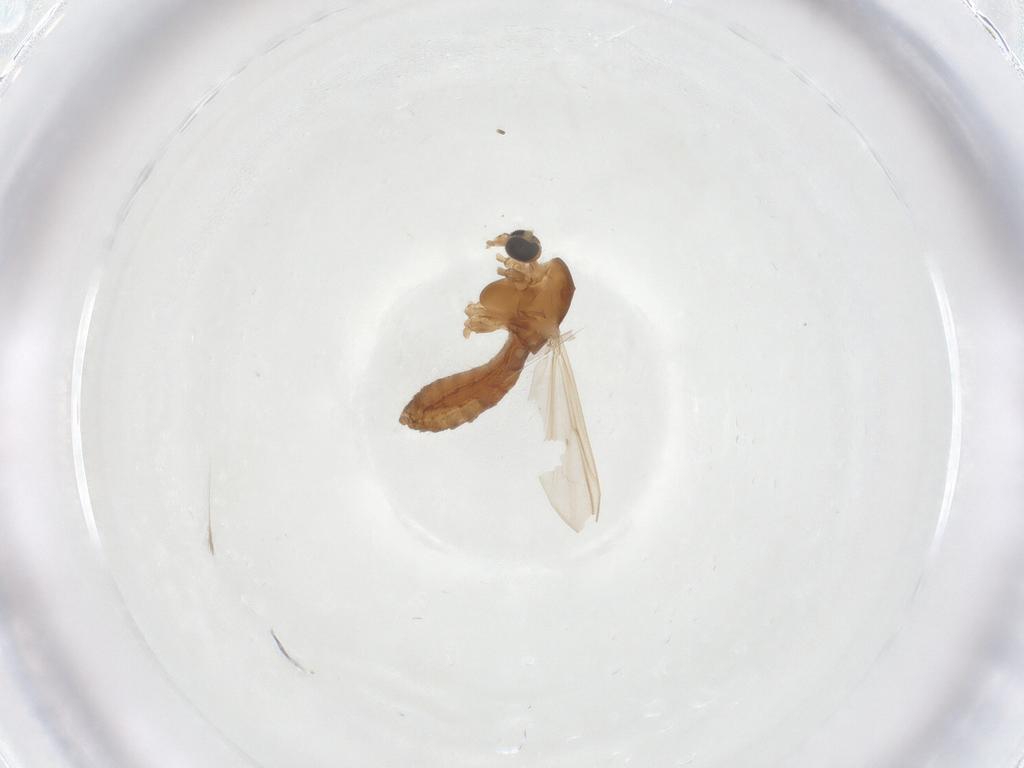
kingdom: Animalia
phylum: Arthropoda
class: Insecta
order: Diptera
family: Chironomidae
